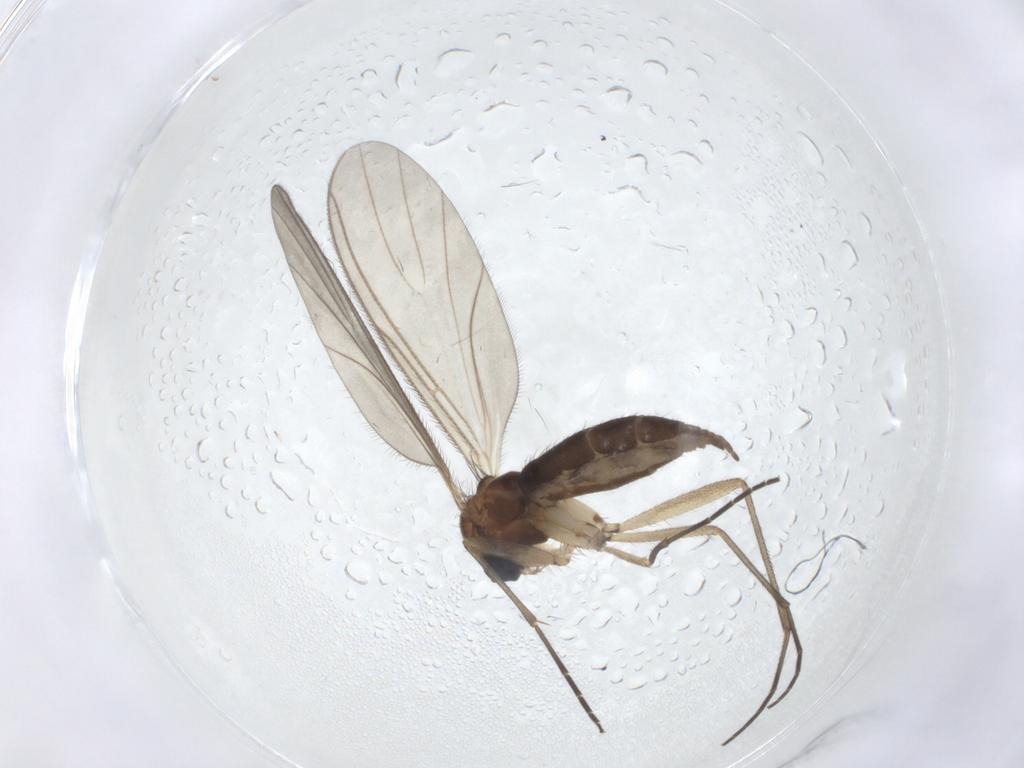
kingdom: Animalia
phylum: Arthropoda
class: Insecta
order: Diptera
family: Sciaridae
